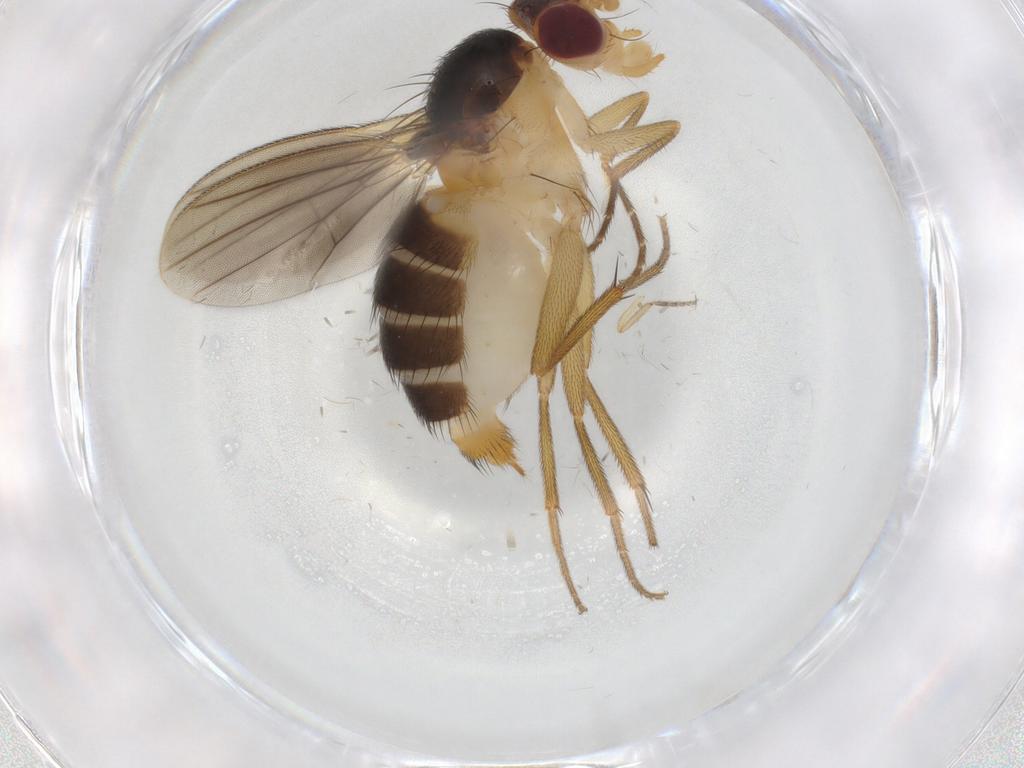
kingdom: Animalia
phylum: Arthropoda
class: Insecta
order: Diptera
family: Clusiidae
